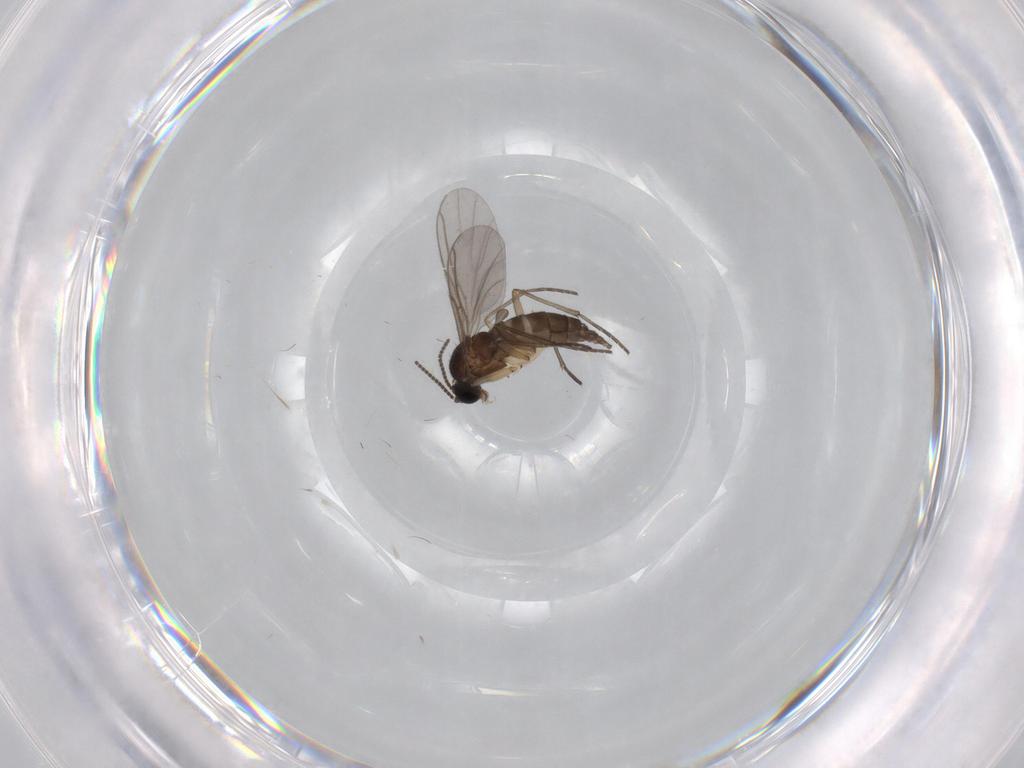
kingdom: Animalia
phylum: Arthropoda
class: Insecta
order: Diptera
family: Sciaridae
